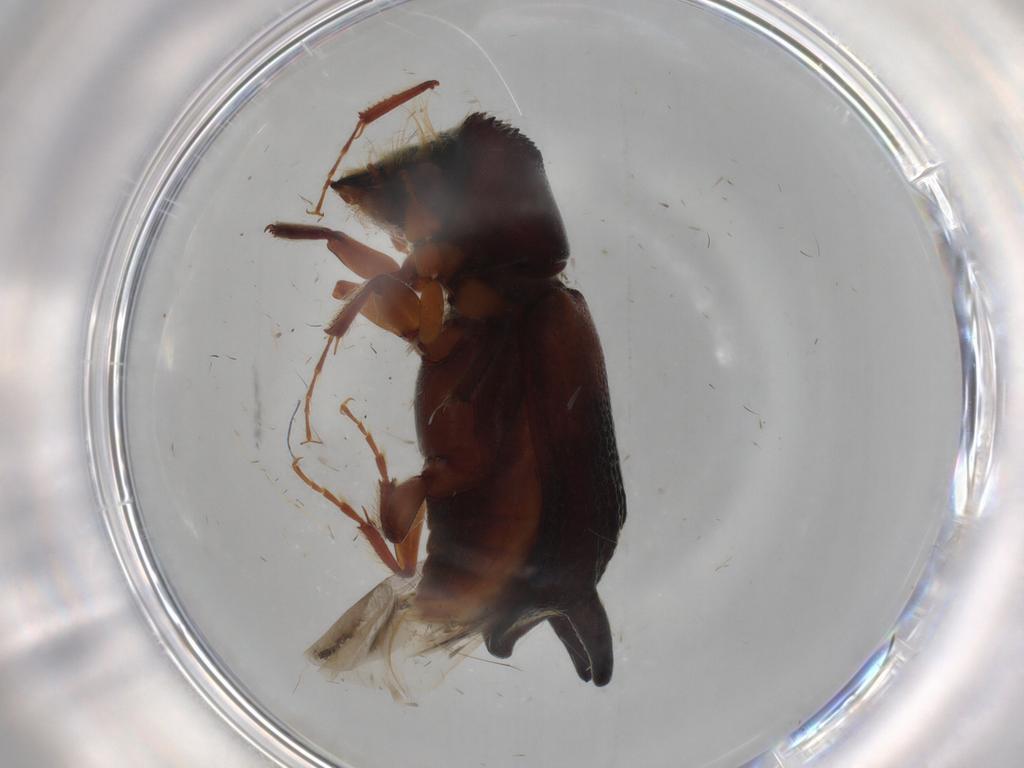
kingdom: Animalia
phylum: Arthropoda
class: Insecta
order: Coleoptera
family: Bostrichidae
